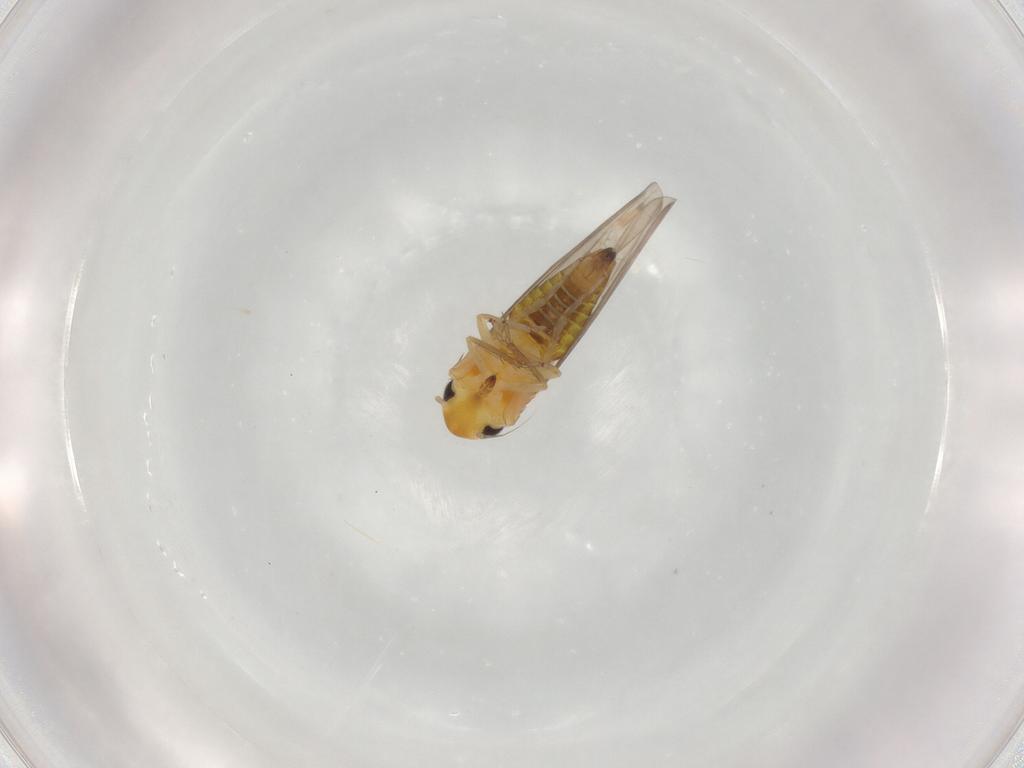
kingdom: Animalia
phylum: Arthropoda
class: Insecta
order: Hemiptera
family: Cicadellidae
